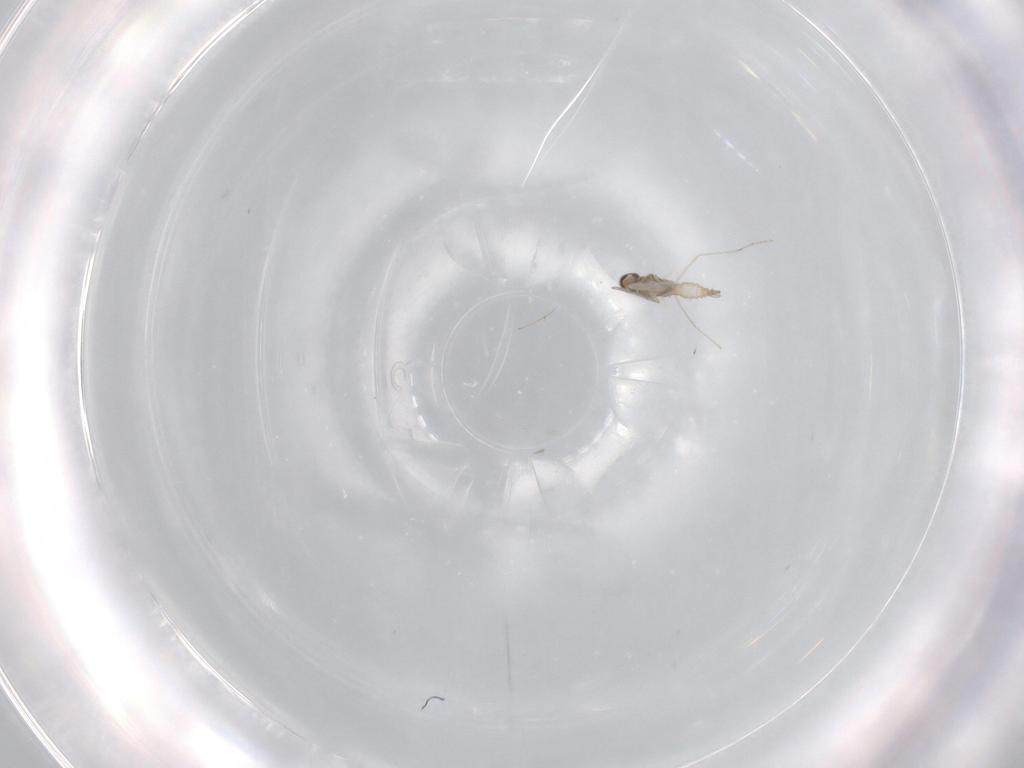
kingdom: Animalia
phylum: Arthropoda
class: Insecta
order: Diptera
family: Cecidomyiidae
